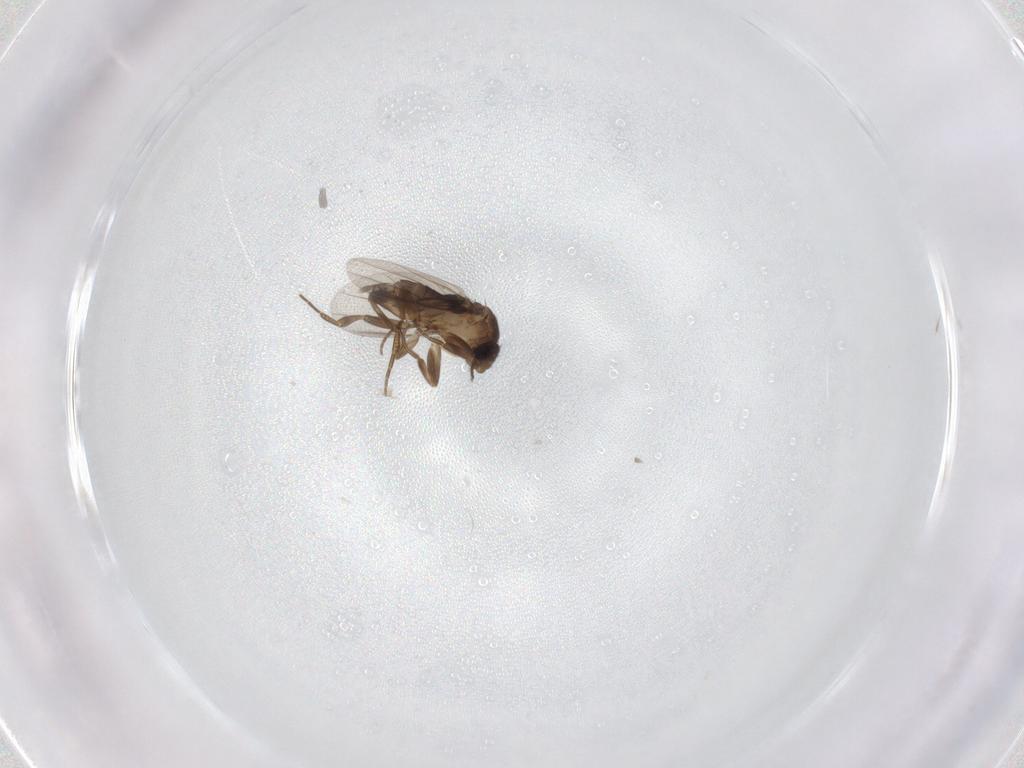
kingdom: Animalia
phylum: Arthropoda
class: Insecta
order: Diptera
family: Phoridae
